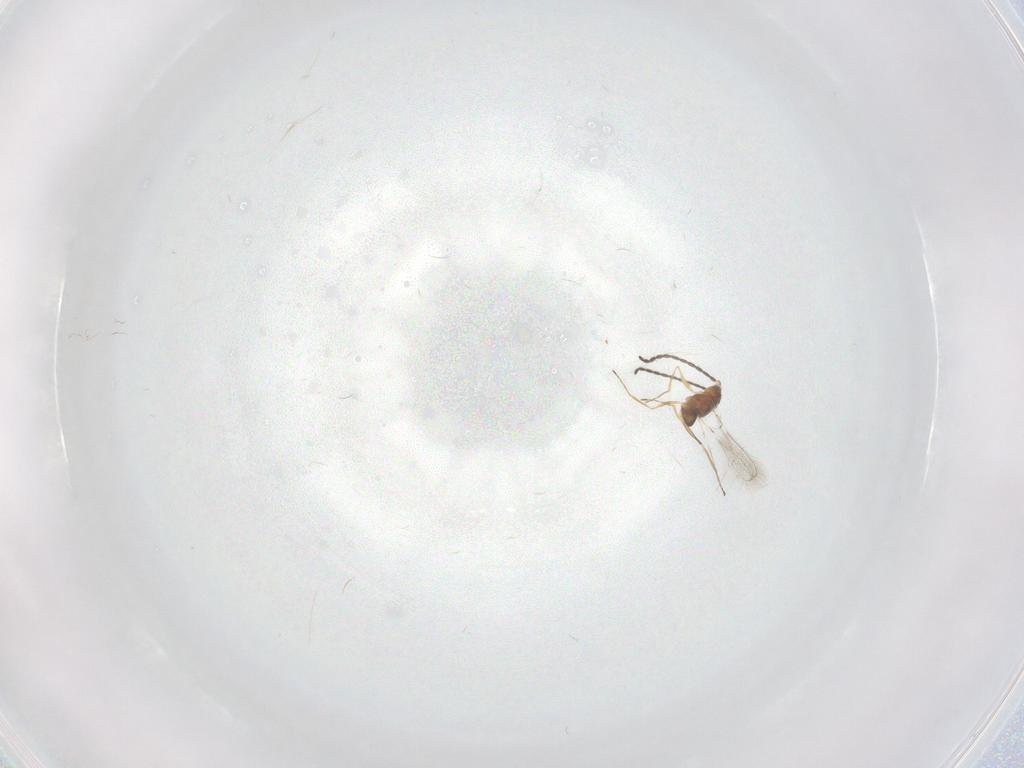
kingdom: Animalia
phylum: Arthropoda
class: Insecta
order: Hymenoptera
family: Mymaridae
